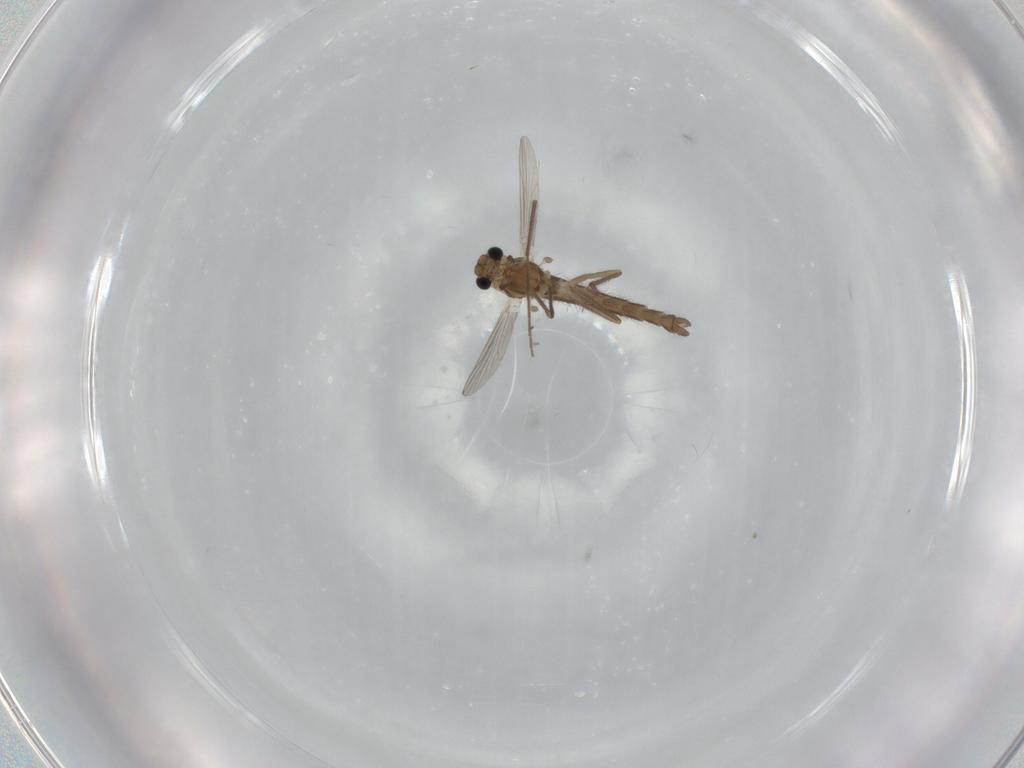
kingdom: Animalia
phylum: Arthropoda
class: Insecta
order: Diptera
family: Chironomidae
